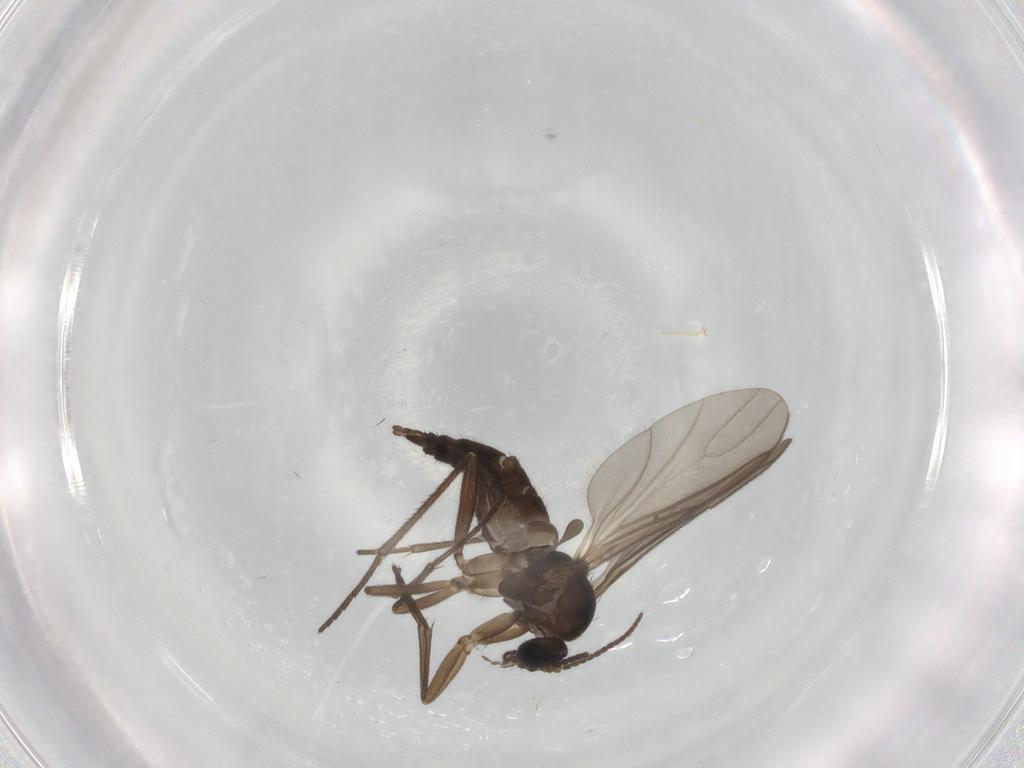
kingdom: Animalia
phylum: Arthropoda
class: Insecta
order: Diptera
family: Sciaridae
